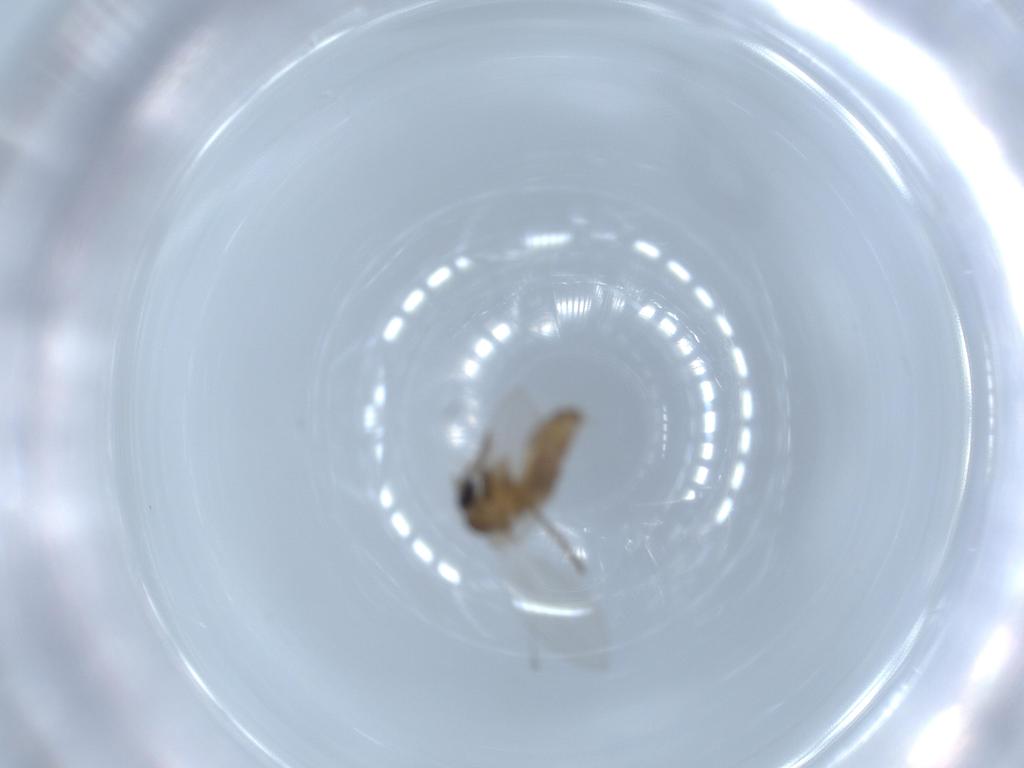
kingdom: Animalia
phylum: Arthropoda
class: Insecta
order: Diptera
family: Psychodidae
